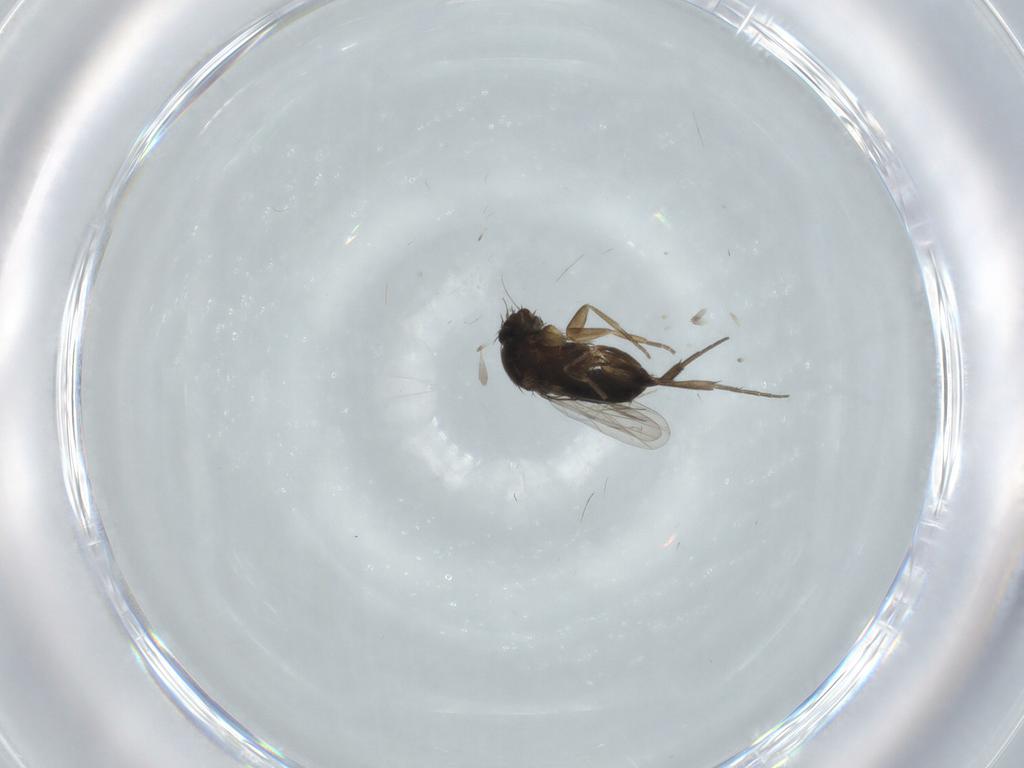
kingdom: Animalia
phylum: Arthropoda
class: Insecta
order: Diptera
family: Phoridae
